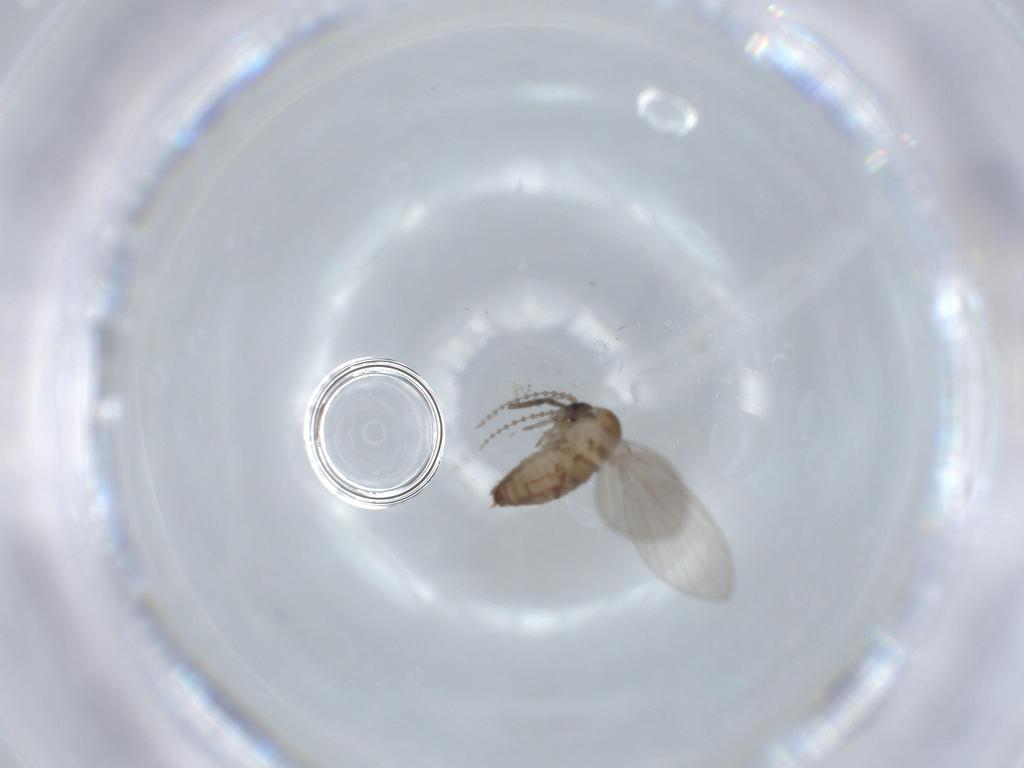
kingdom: Animalia
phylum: Arthropoda
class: Insecta
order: Diptera
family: Psychodidae
